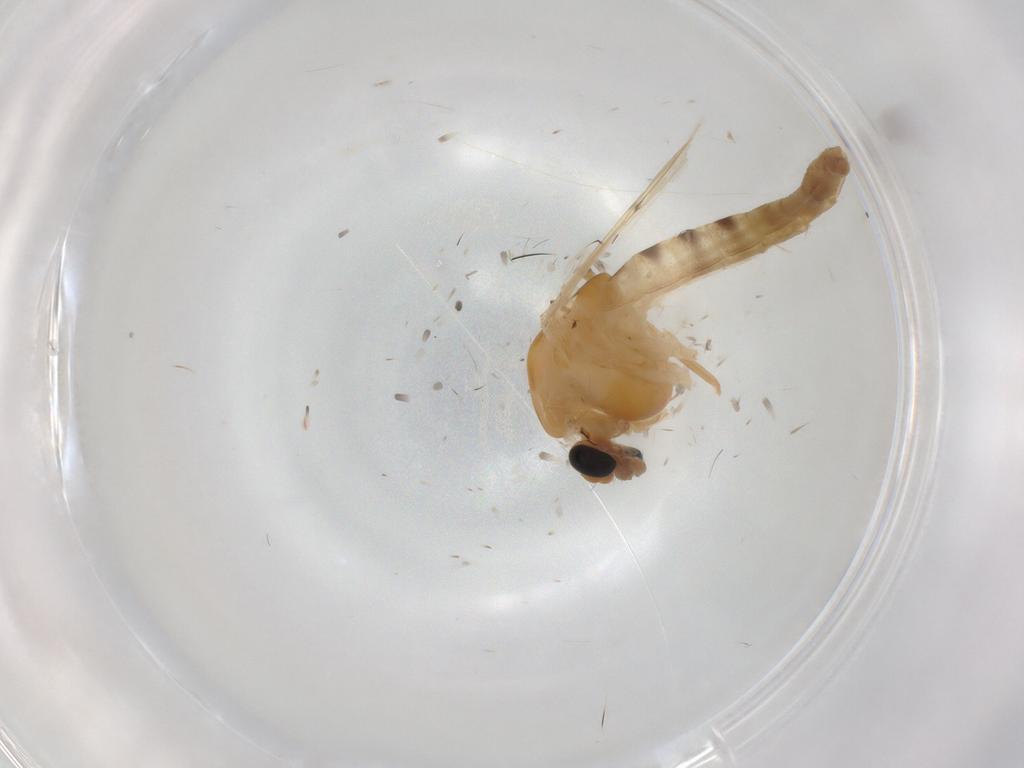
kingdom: Animalia
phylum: Arthropoda
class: Insecta
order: Diptera
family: Chironomidae
